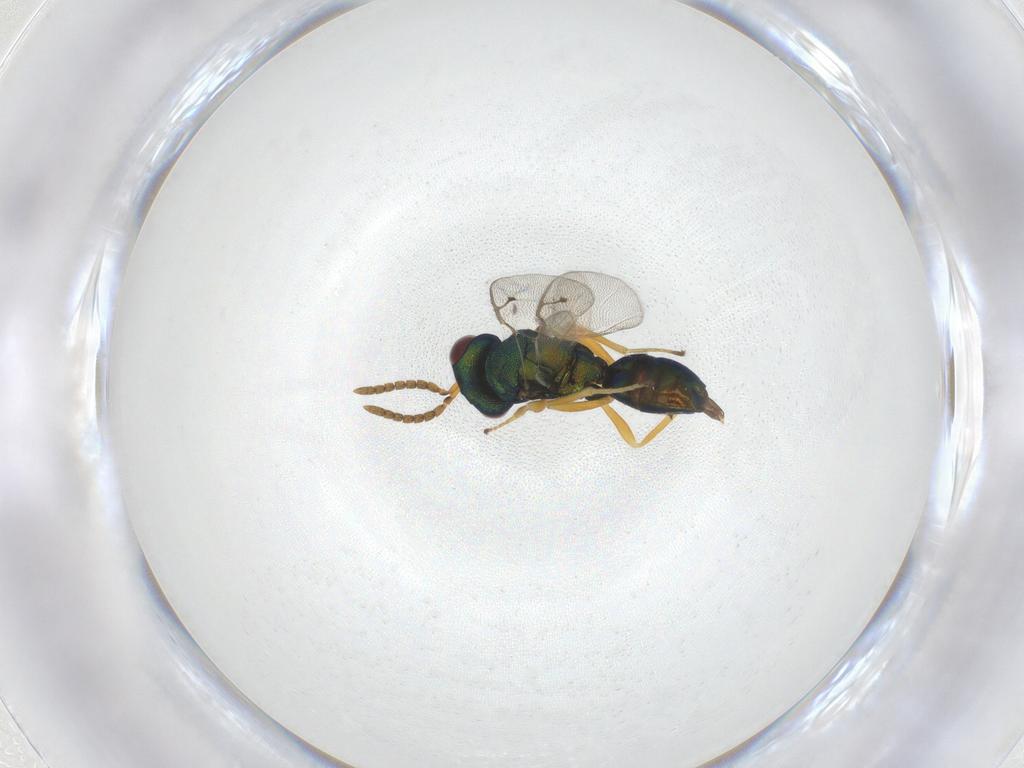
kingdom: Animalia
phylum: Arthropoda
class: Insecta
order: Hymenoptera
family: Pteromalidae
